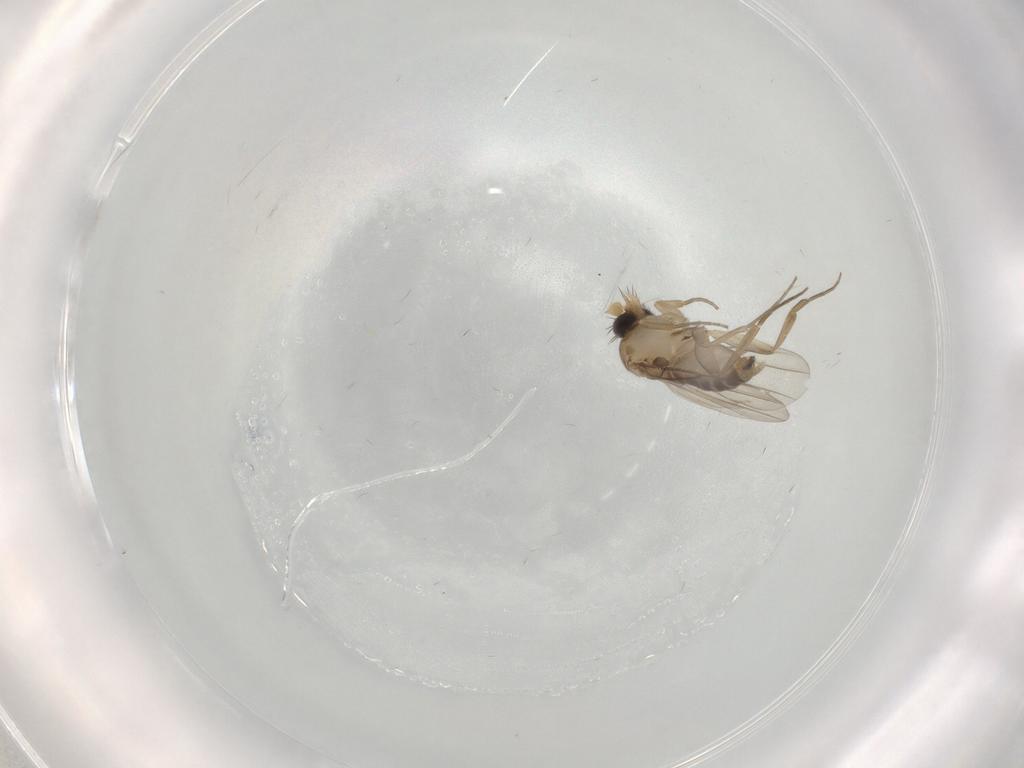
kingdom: Animalia
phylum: Arthropoda
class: Insecta
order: Diptera
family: Phoridae
